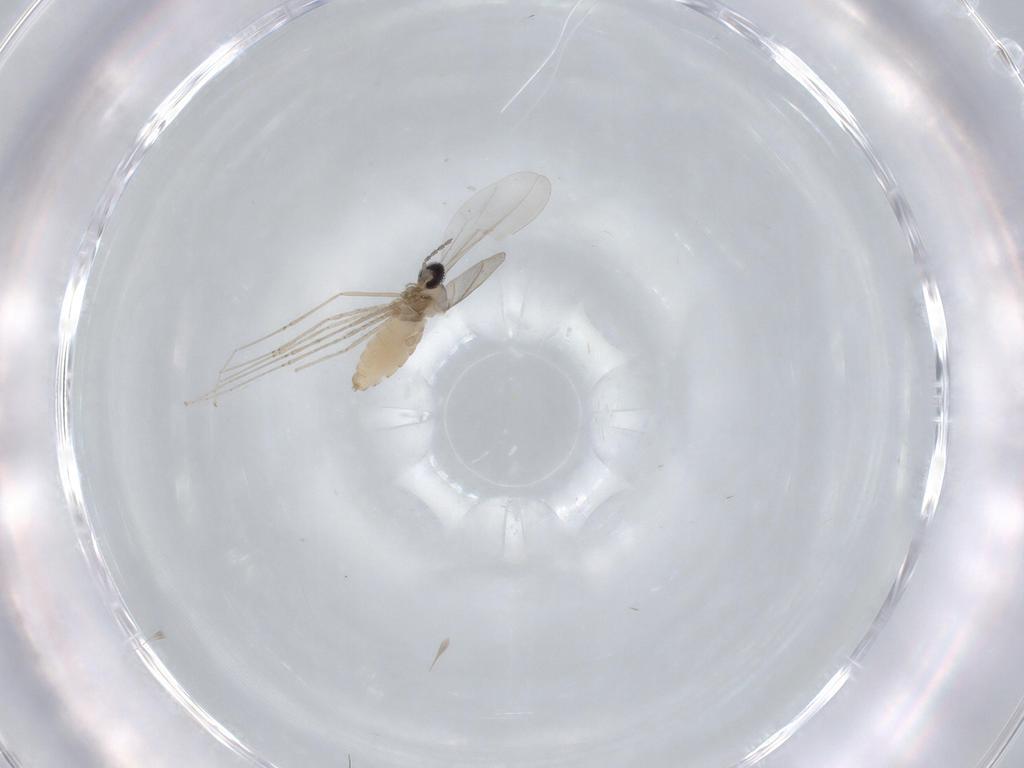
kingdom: Animalia
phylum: Arthropoda
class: Insecta
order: Diptera
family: Cecidomyiidae
